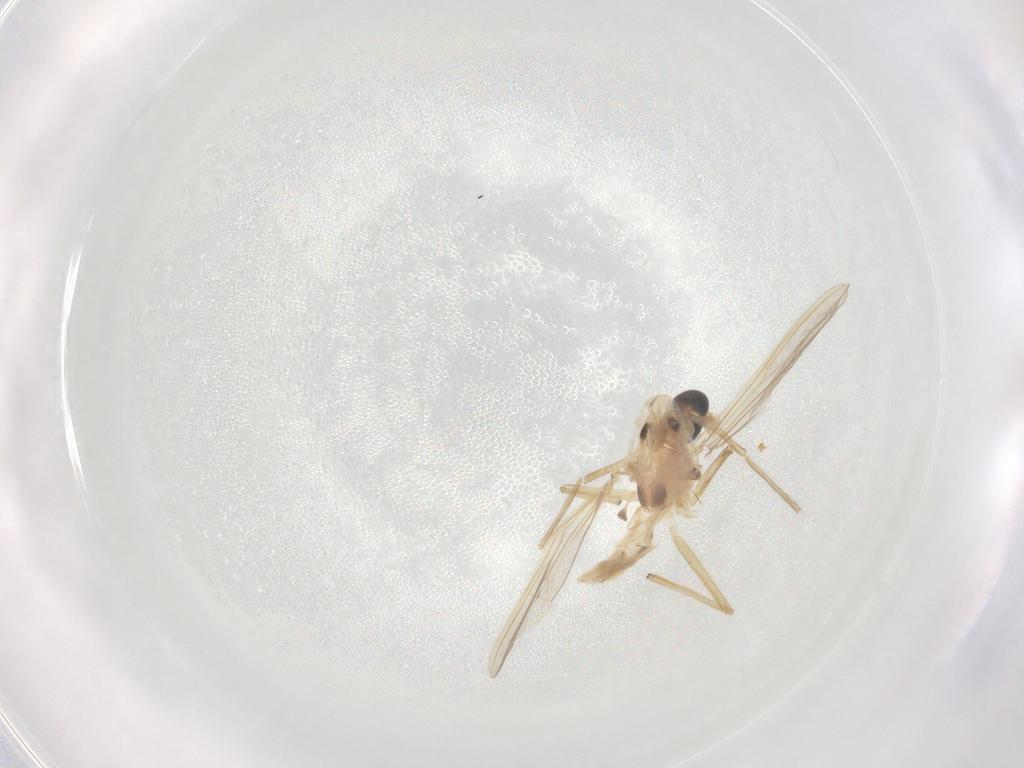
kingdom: Animalia
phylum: Arthropoda
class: Insecta
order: Diptera
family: Chironomidae
